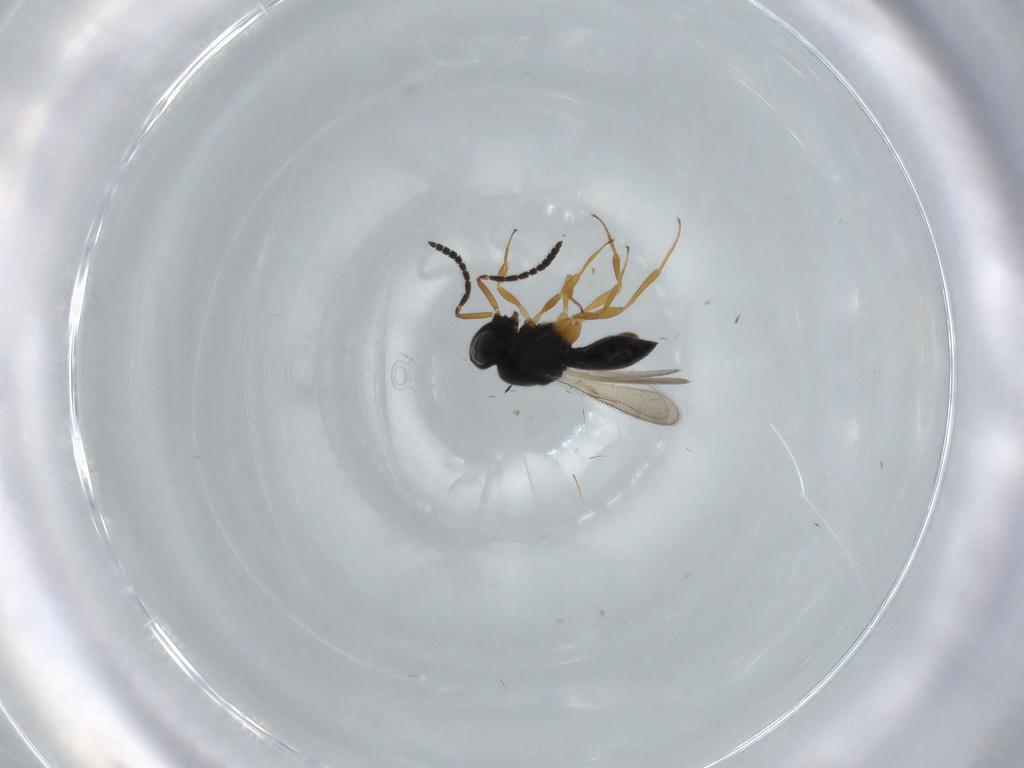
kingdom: Animalia
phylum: Arthropoda
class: Insecta
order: Hymenoptera
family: Scelionidae
